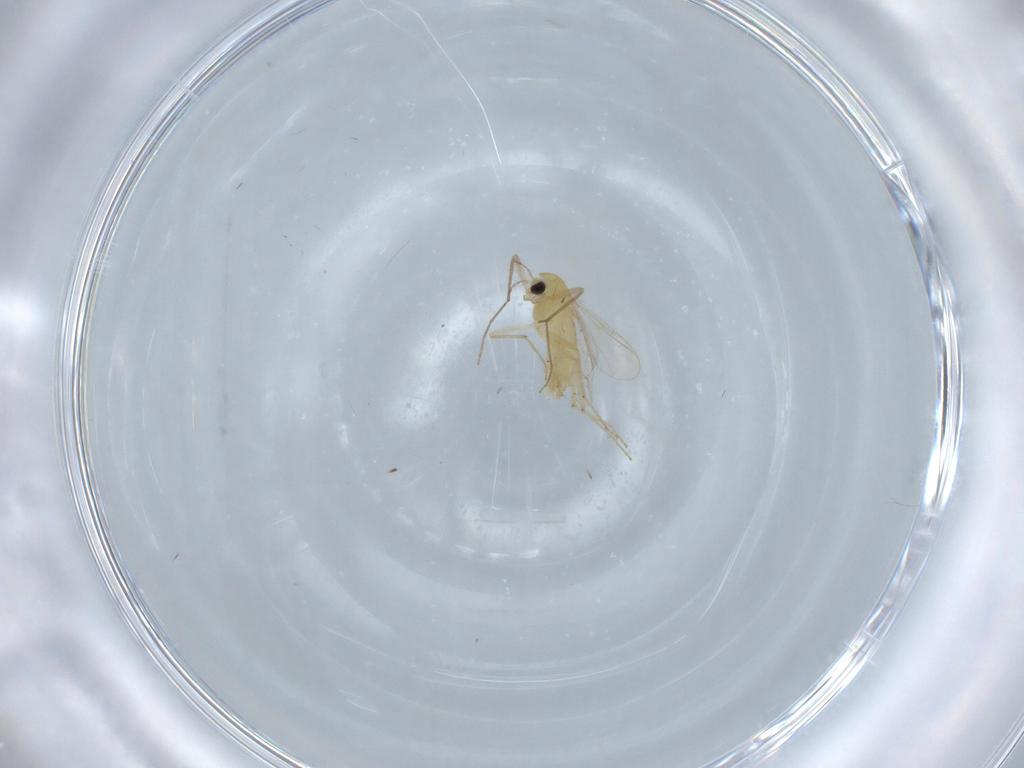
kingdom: Animalia
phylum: Arthropoda
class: Insecta
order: Diptera
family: Ceratopogonidae
